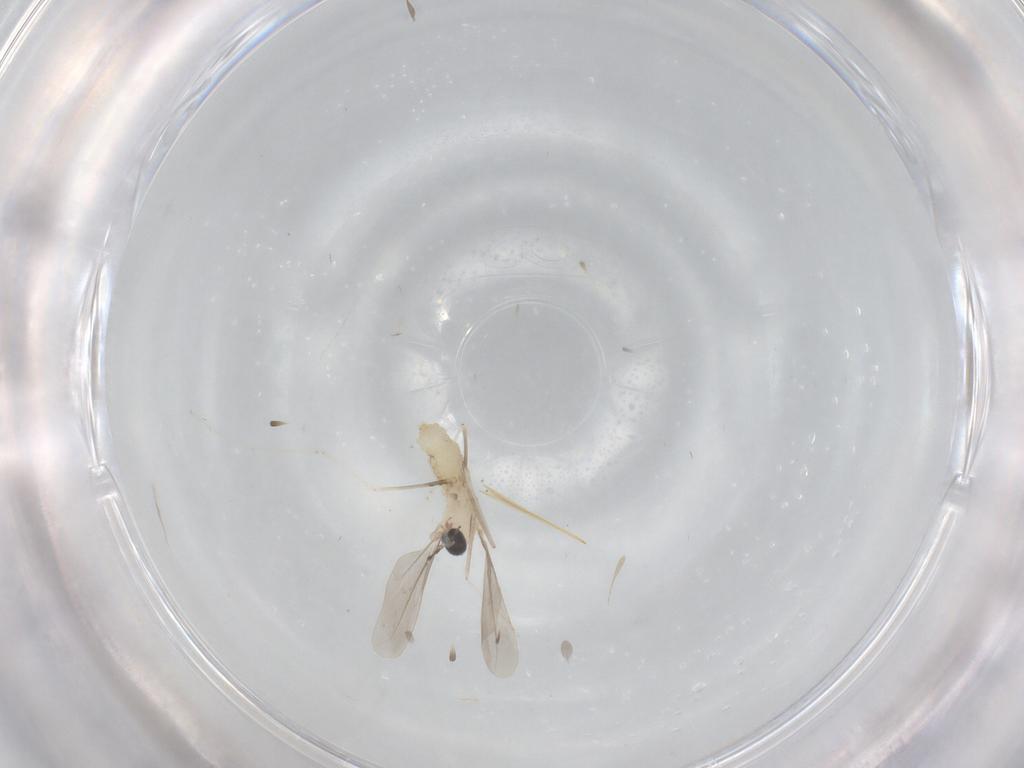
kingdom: Animalia
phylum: Arthropoda
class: Insecta
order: Diptera
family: Cecidomyiidae
